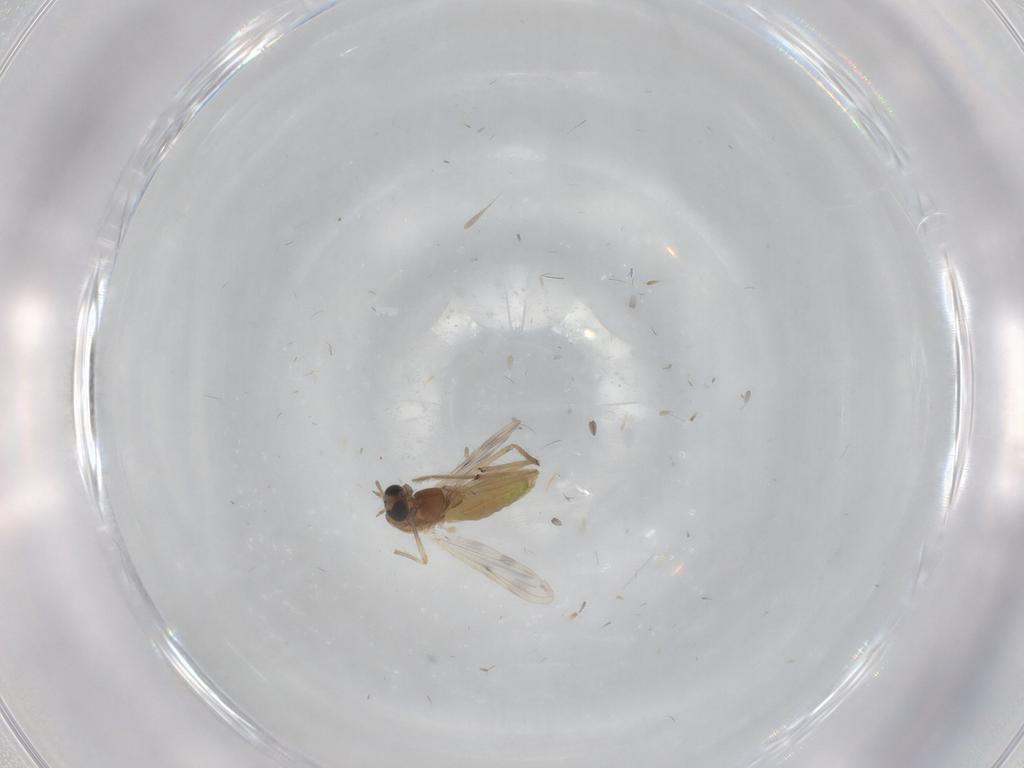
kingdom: Animalia
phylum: Arthropoda
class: Insecta
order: Diptera
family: Chironomidae
